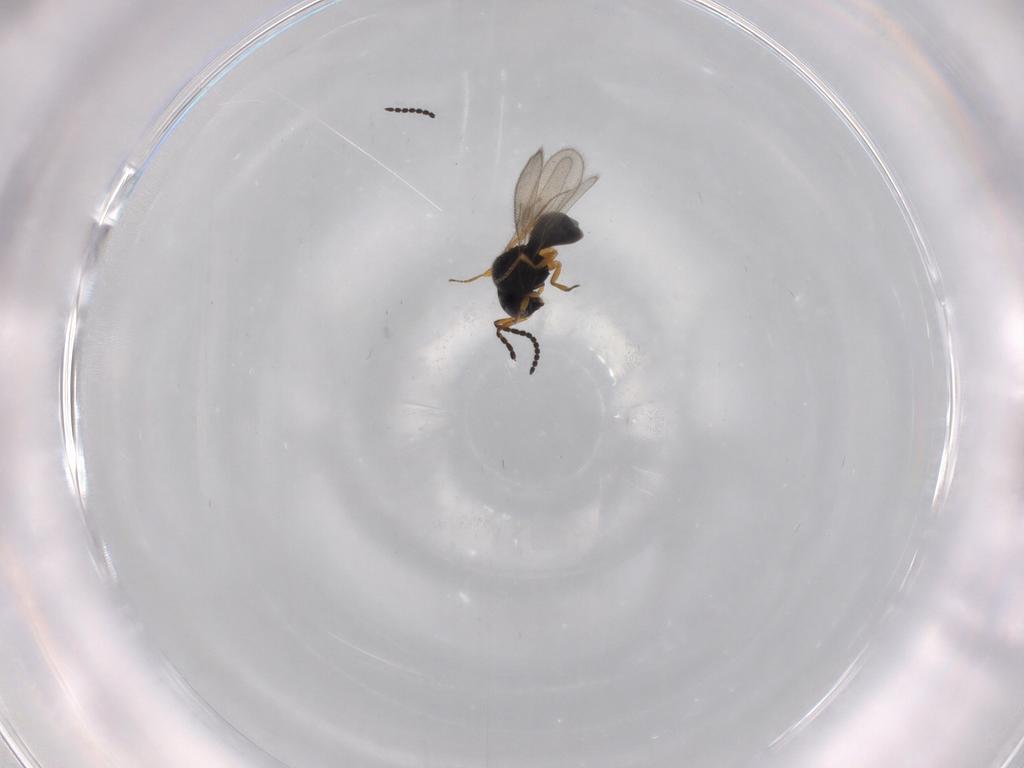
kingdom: Animalia
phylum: Arthropoda
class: Insecta
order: Hymenoptera
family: Scelionidae
